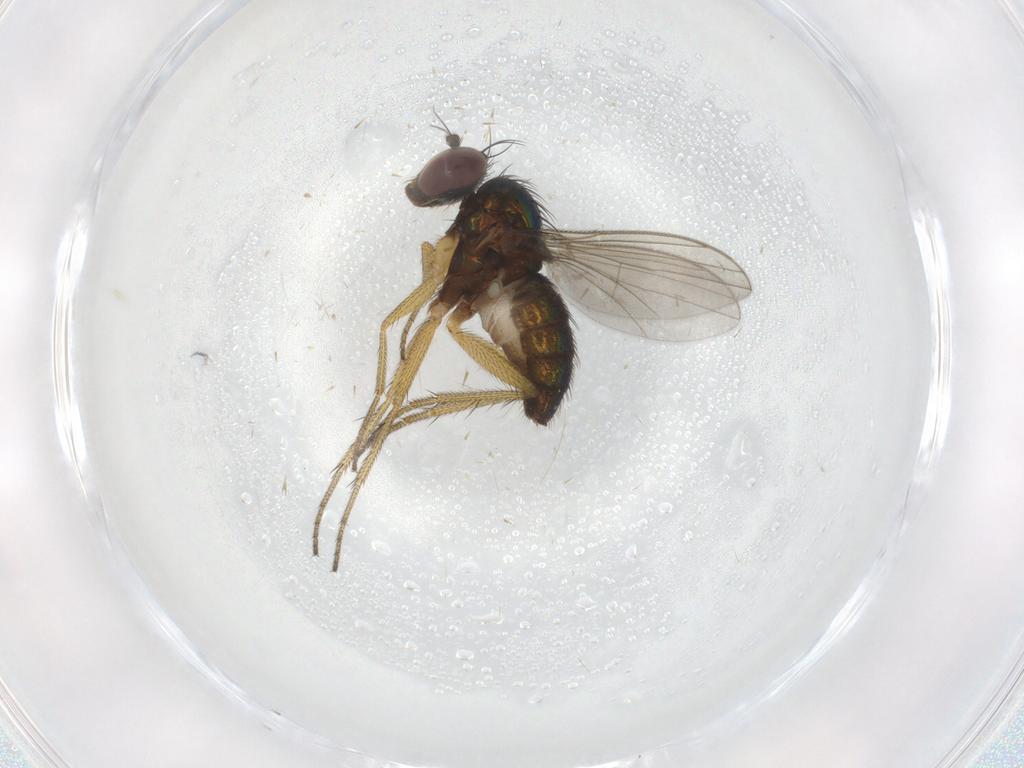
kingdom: Animalia
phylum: Arthropoda
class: Insecta
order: Diptera
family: Dolichopodidae
